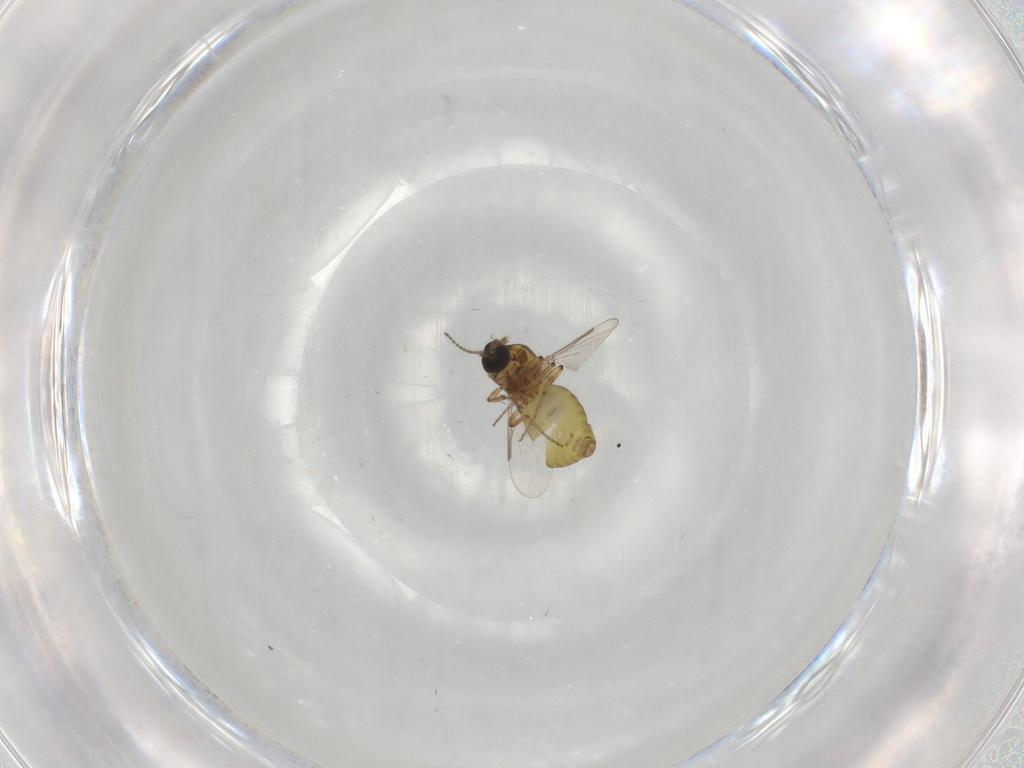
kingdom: Animalia
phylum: Arthropoda
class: Insecta
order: Diptera
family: Ceratopogonidae
